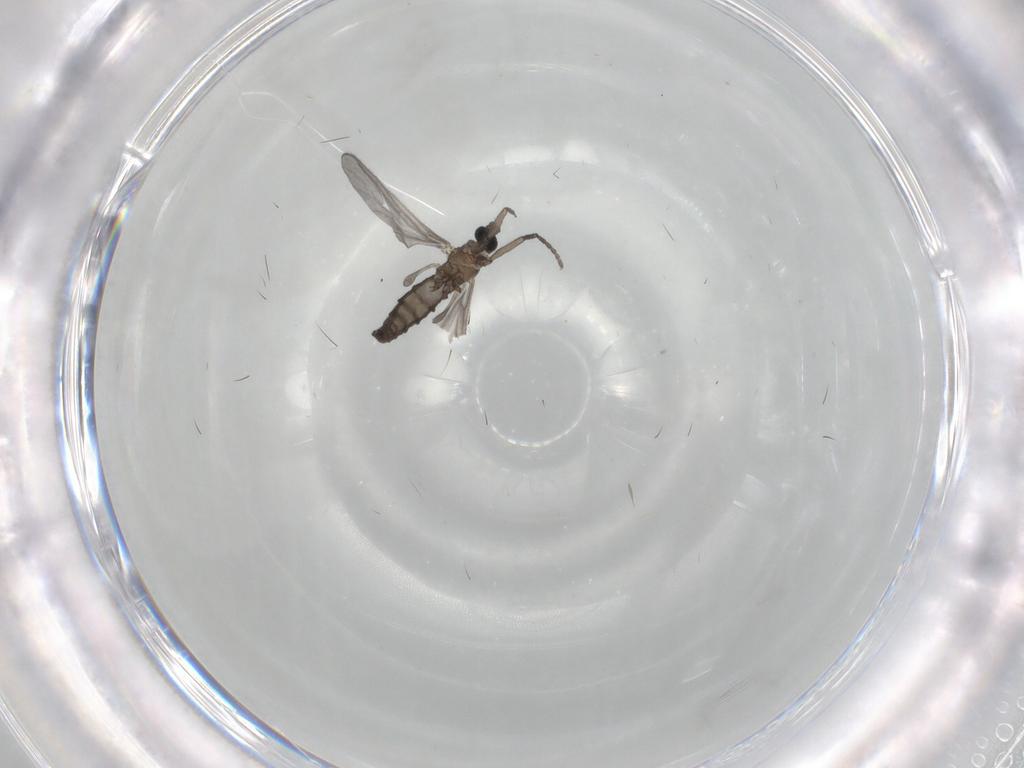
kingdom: Animalia
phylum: Arthropoda
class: Insecta
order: Diptera
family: Sciaridae
